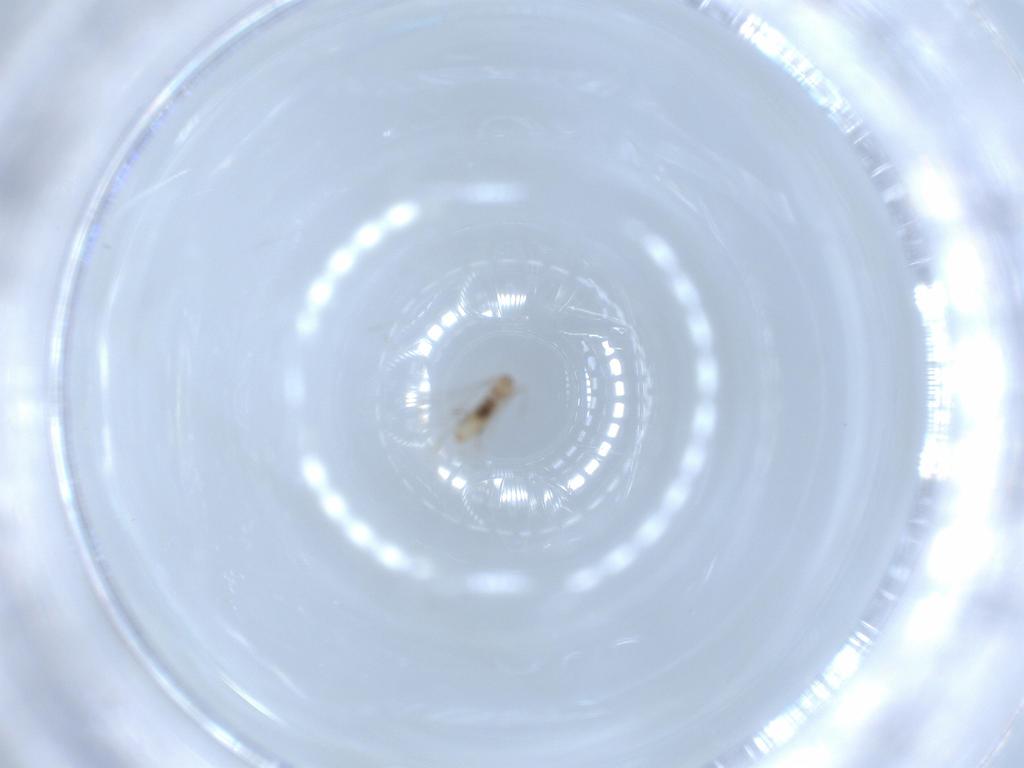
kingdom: Animalia
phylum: Arthropoda
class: Insecta
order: Diptera
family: Cecidomyiidae
